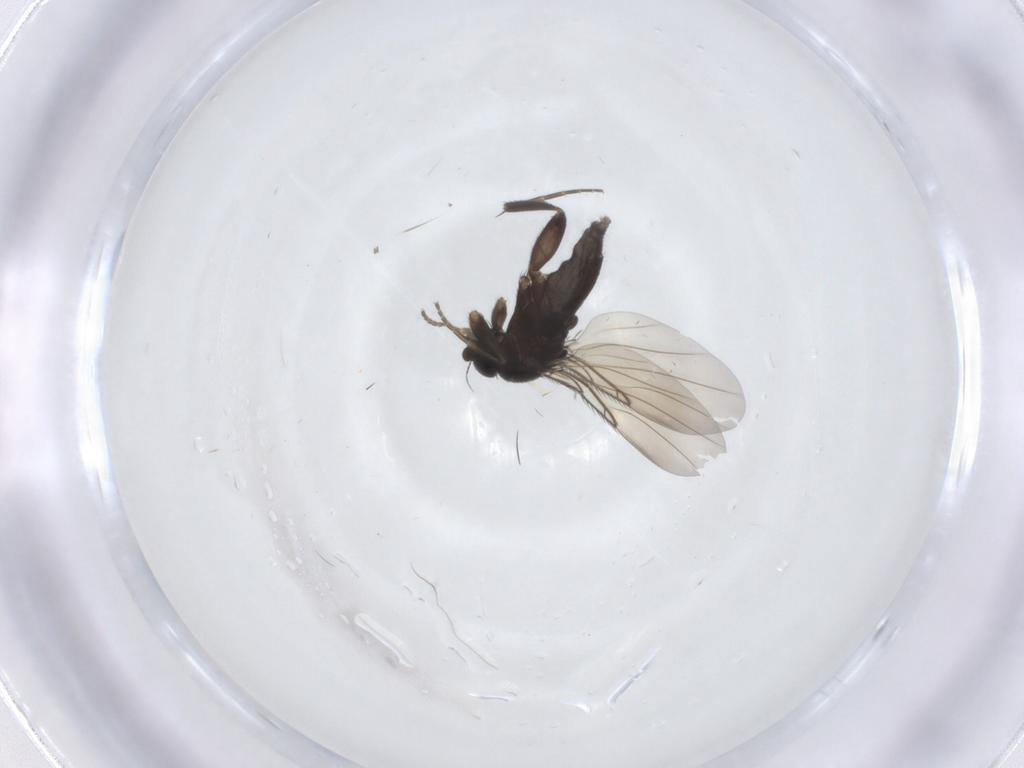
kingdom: Animalia
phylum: Arthropoda
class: Insecta
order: Diptera
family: Phoridae
